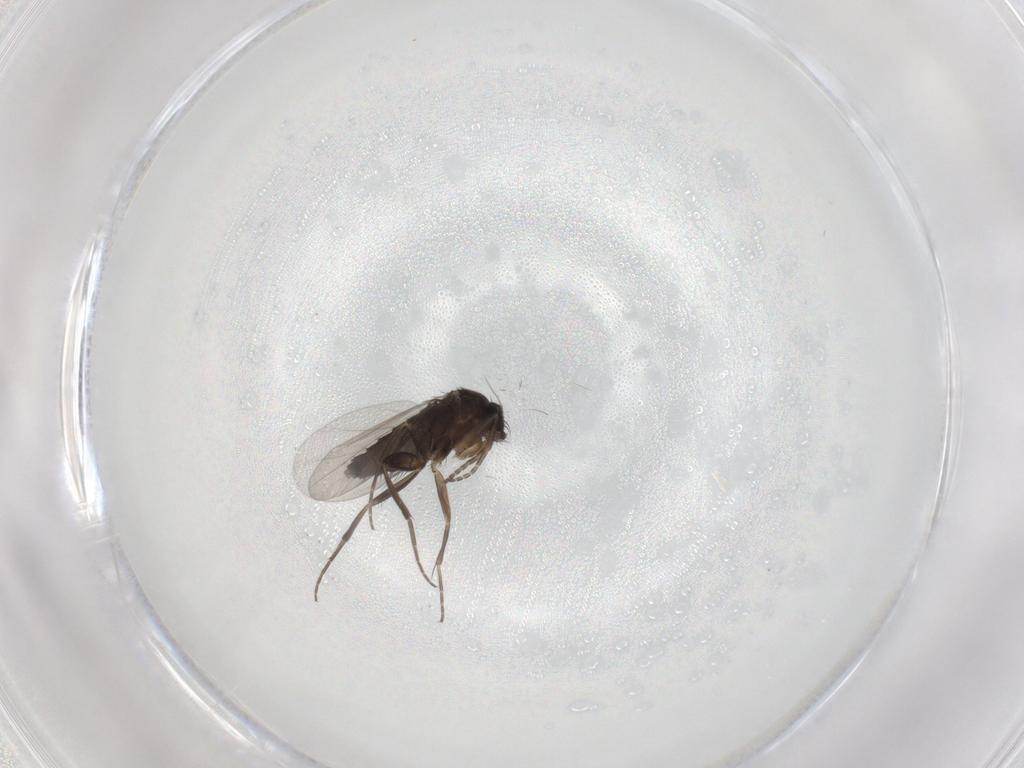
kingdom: Animalia
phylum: Arthropoda
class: Insecta
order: Diptera
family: Phoridae
